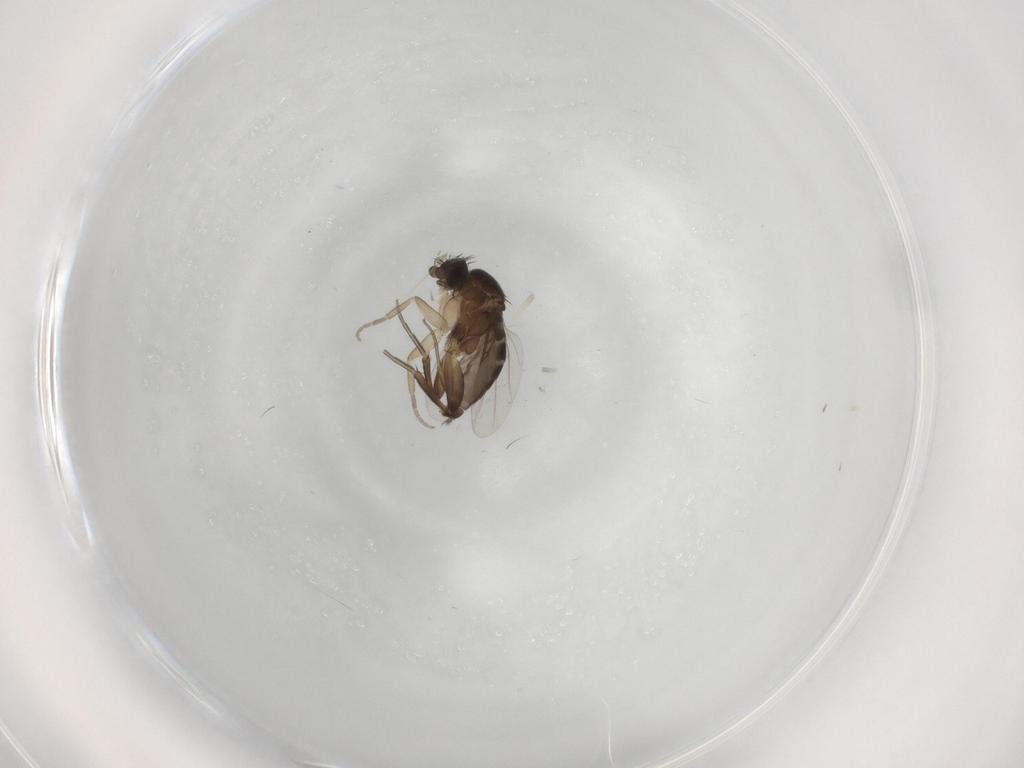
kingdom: Animalia
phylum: Arthropoda
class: Insecta
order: Diptera
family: Phoridae
